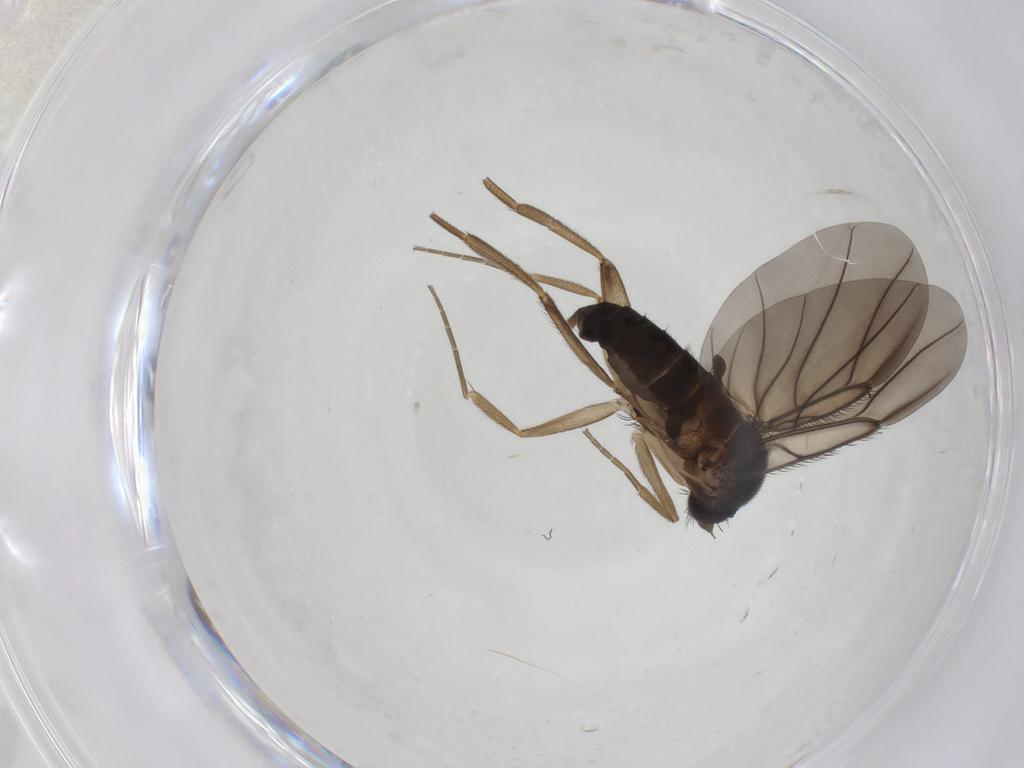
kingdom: Animalia
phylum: Arthropoda
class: Insecta
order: Diptera
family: Phoridae
